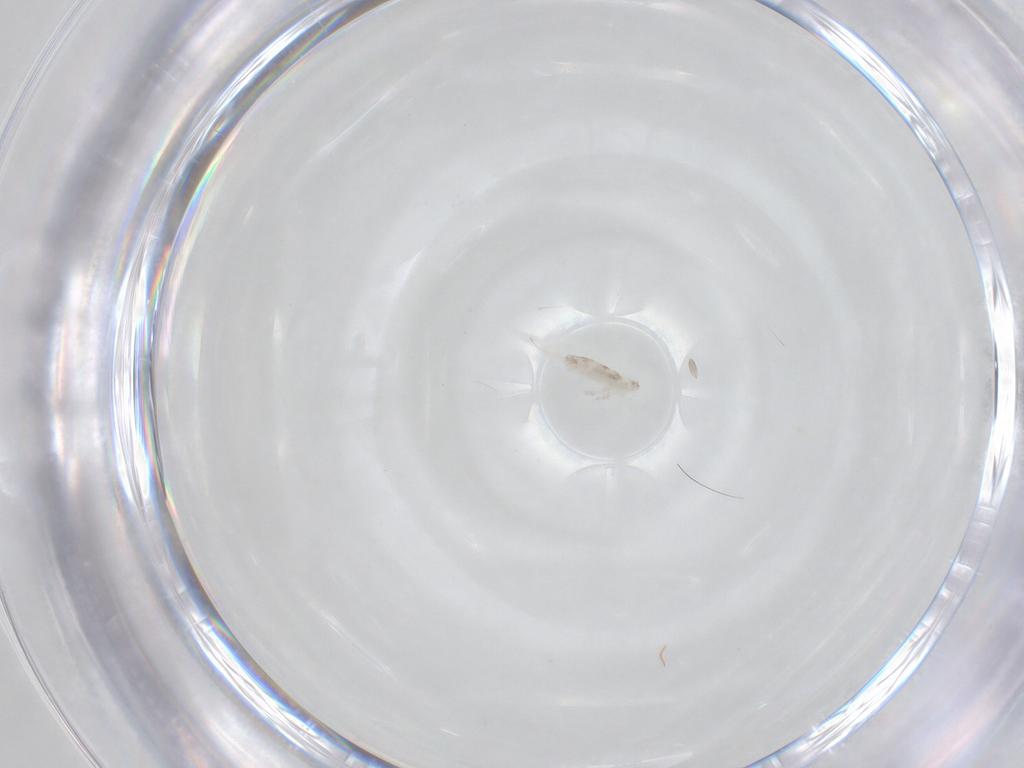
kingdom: Animalia
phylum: Arthropoda
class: Collembola
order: Entomobryomorpha
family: Entomobryidae
